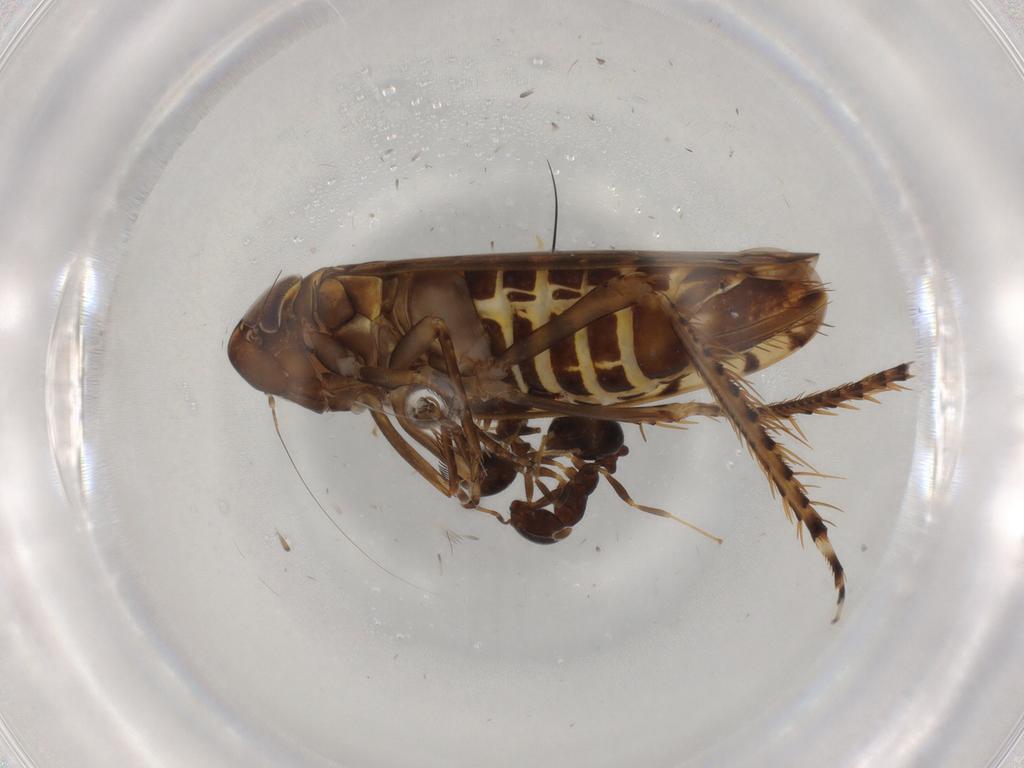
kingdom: Animalia
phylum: Arthropoda
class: Insecta
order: Hemiptera
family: Cicadellidae
